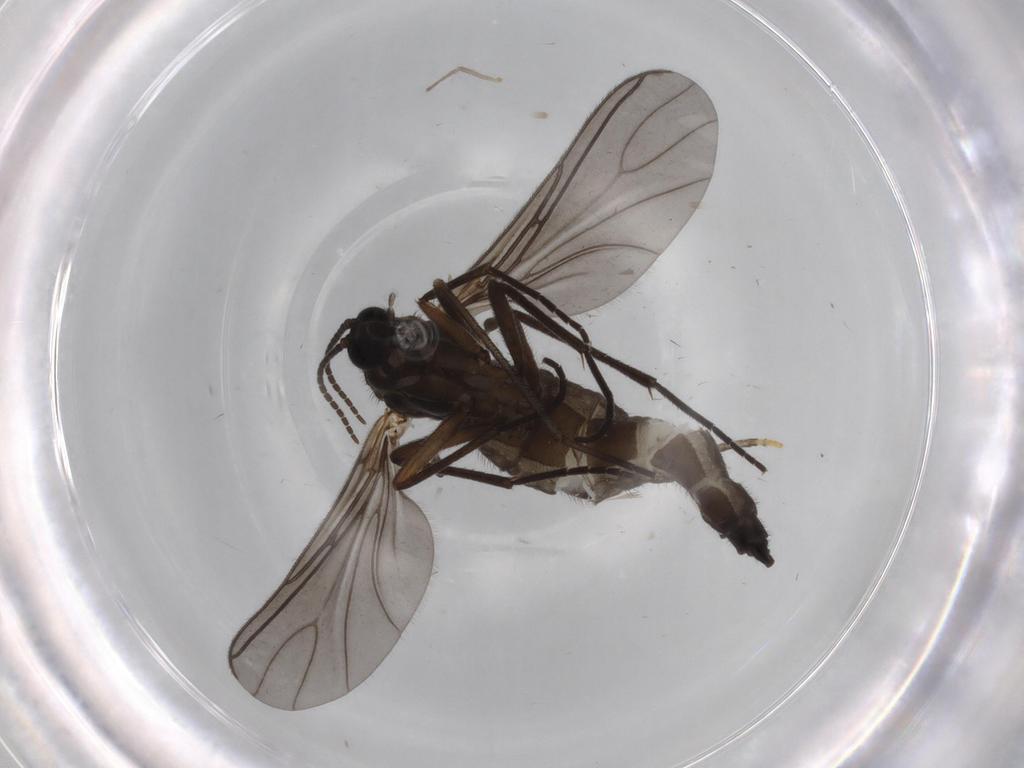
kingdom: Animalia
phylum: Arthropoda
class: Insecta
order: Diptera
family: Sciaridae
